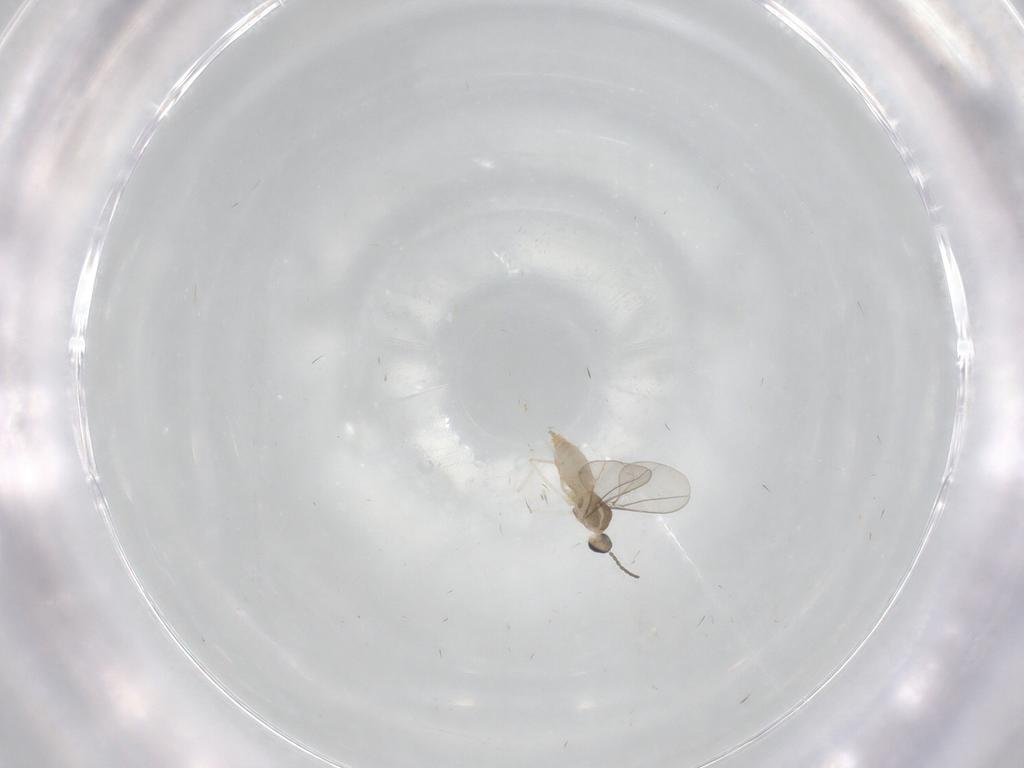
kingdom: Animalia
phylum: Arthropoda
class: Insecta
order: Diptera
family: Cecidomyiidae
